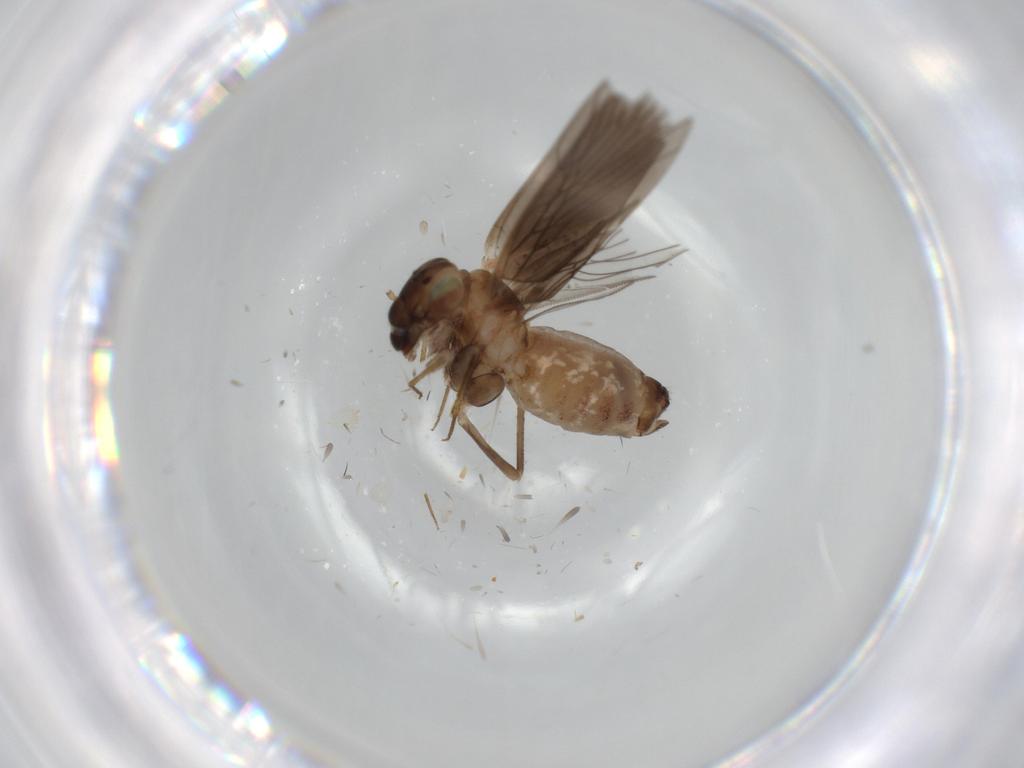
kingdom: Animalia
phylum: Arthropoda
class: Insecta
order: Psocodea
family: Lepidopsocidae
